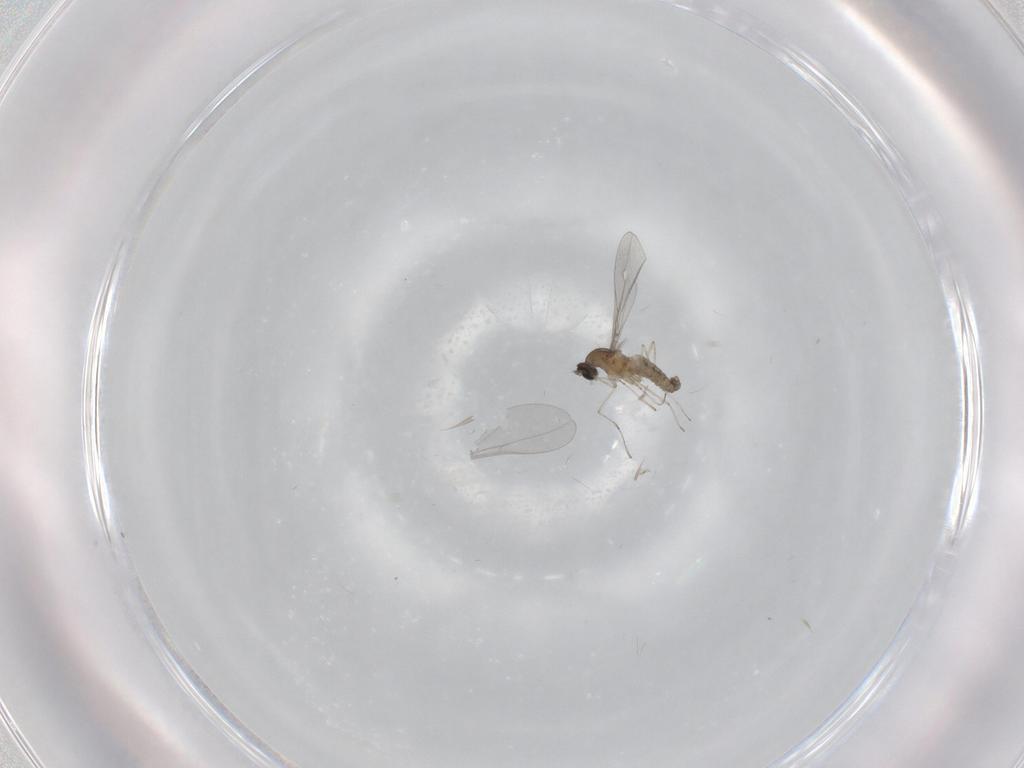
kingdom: Animalia
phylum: Arthropoda
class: Insecta
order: Diptera
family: Cecidomyiidae
